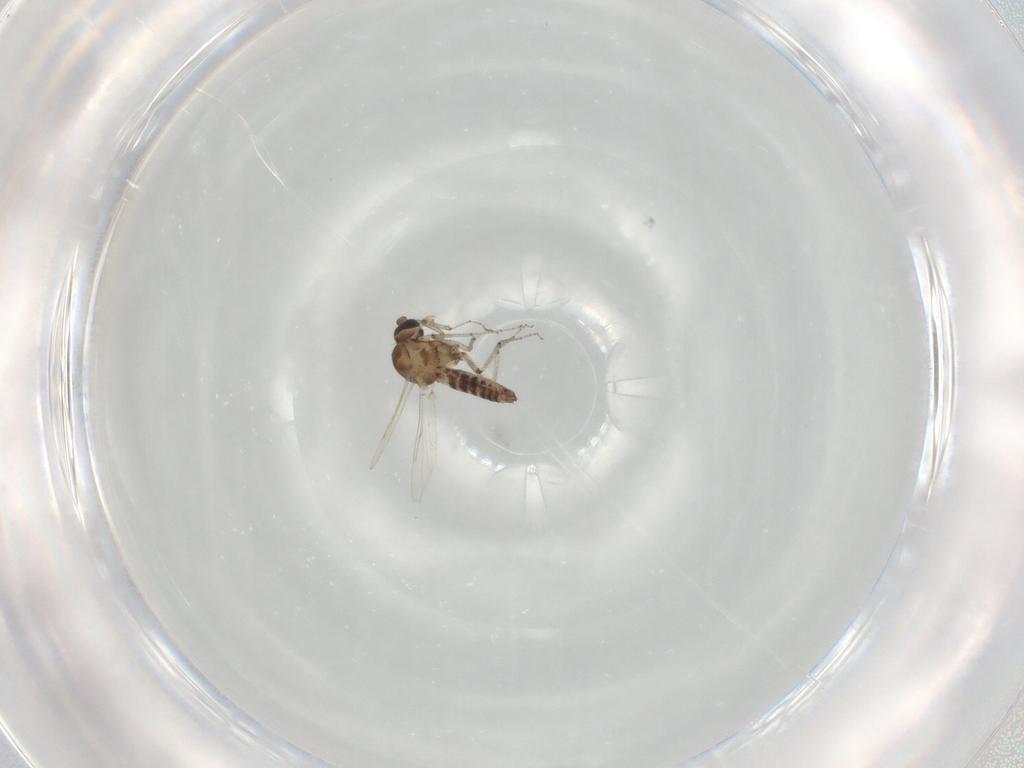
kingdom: Animalia
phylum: Arthropoda
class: Insecta
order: Diptera
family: Ceratopogonidae
